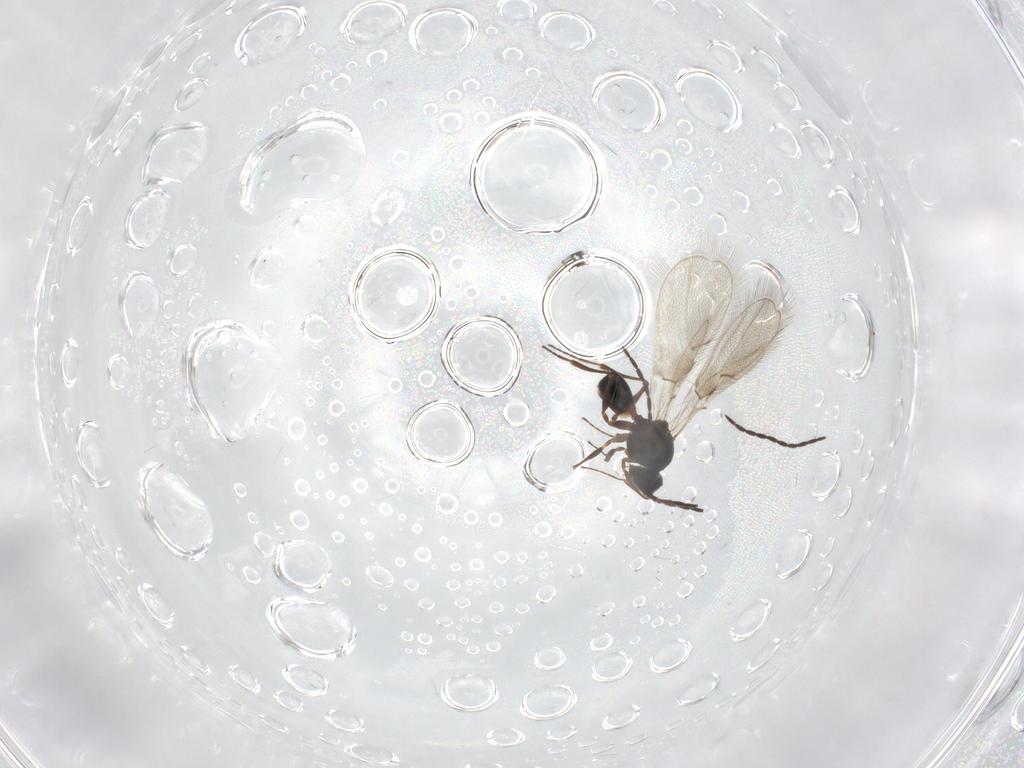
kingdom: Animalia
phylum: Arthropoda
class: Insecta
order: Hymenoptera
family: Figitidae
